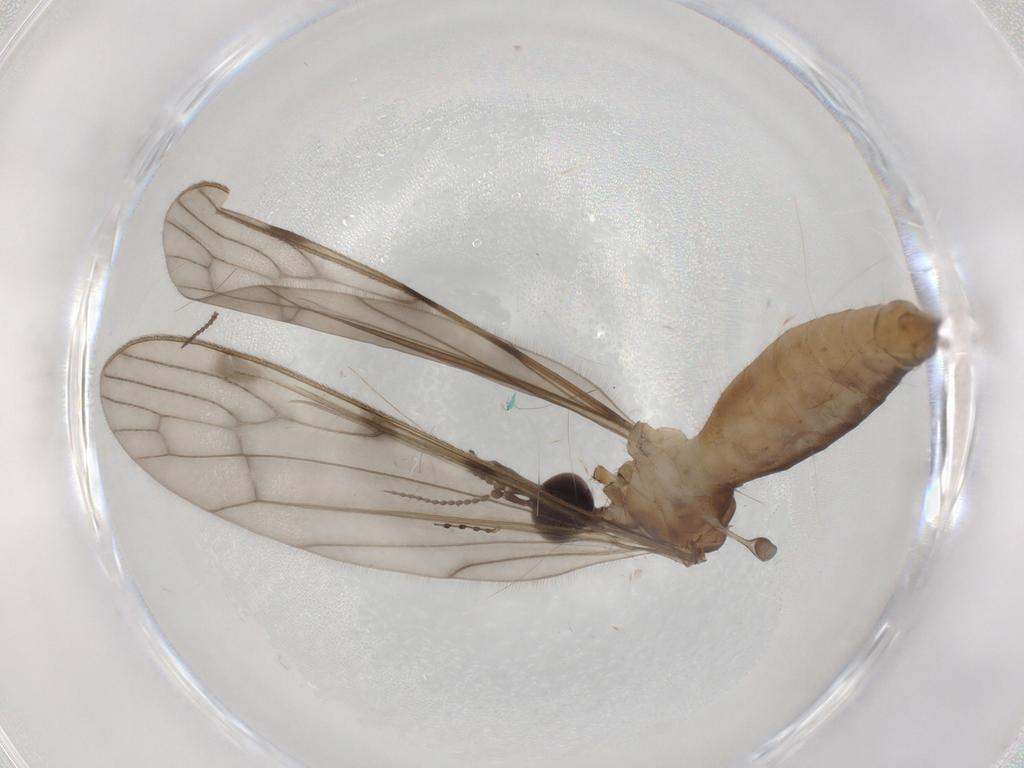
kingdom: Animalia
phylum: Arthropoda
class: Insecta
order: Diptera
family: Limoniidae
